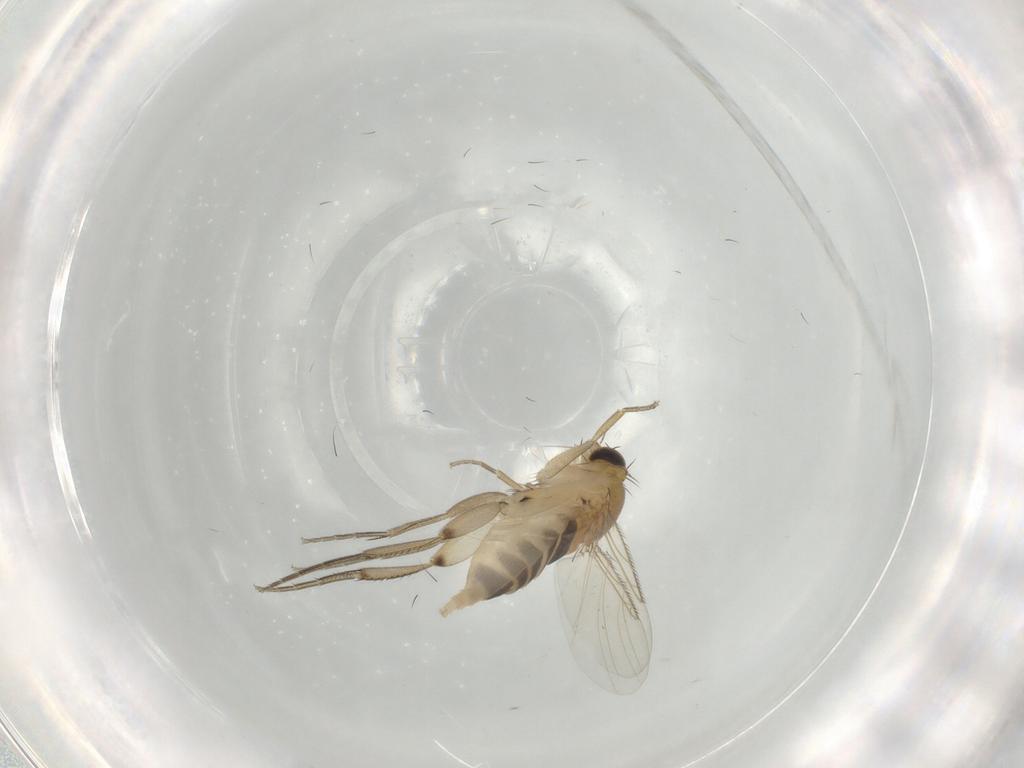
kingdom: Animalia
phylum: Arthropoda
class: Insecta
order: Diptera
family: Phoridae
